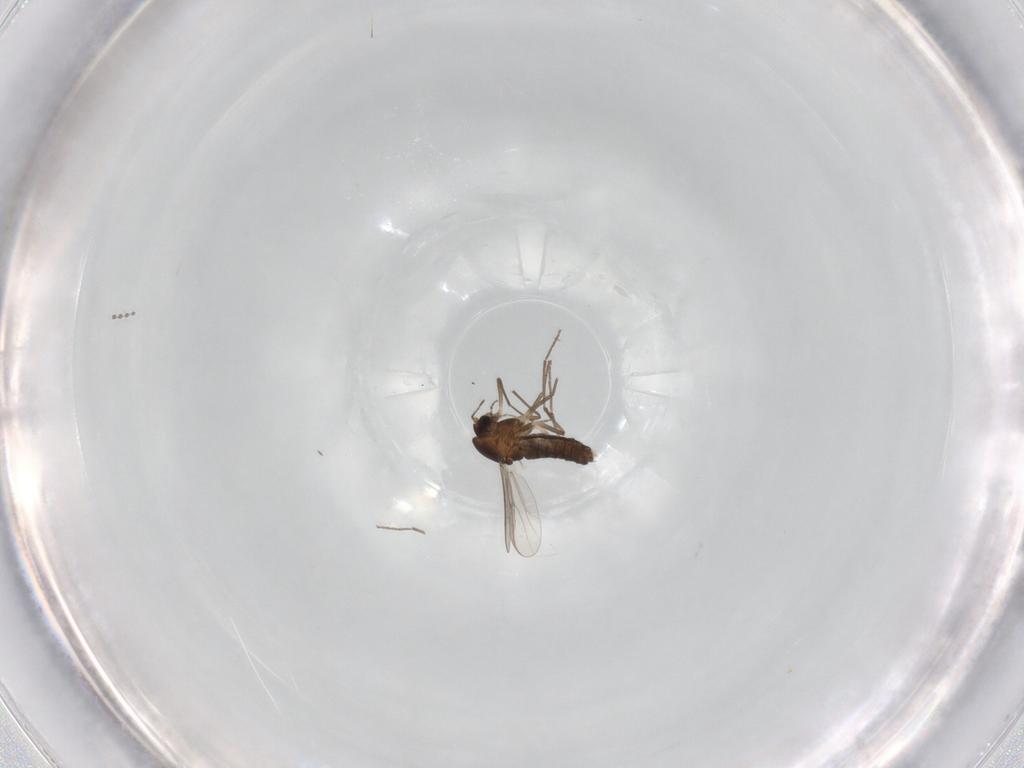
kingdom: Animalia
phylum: Arthropoda
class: Insecta
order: Diptera
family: Chironomidae
